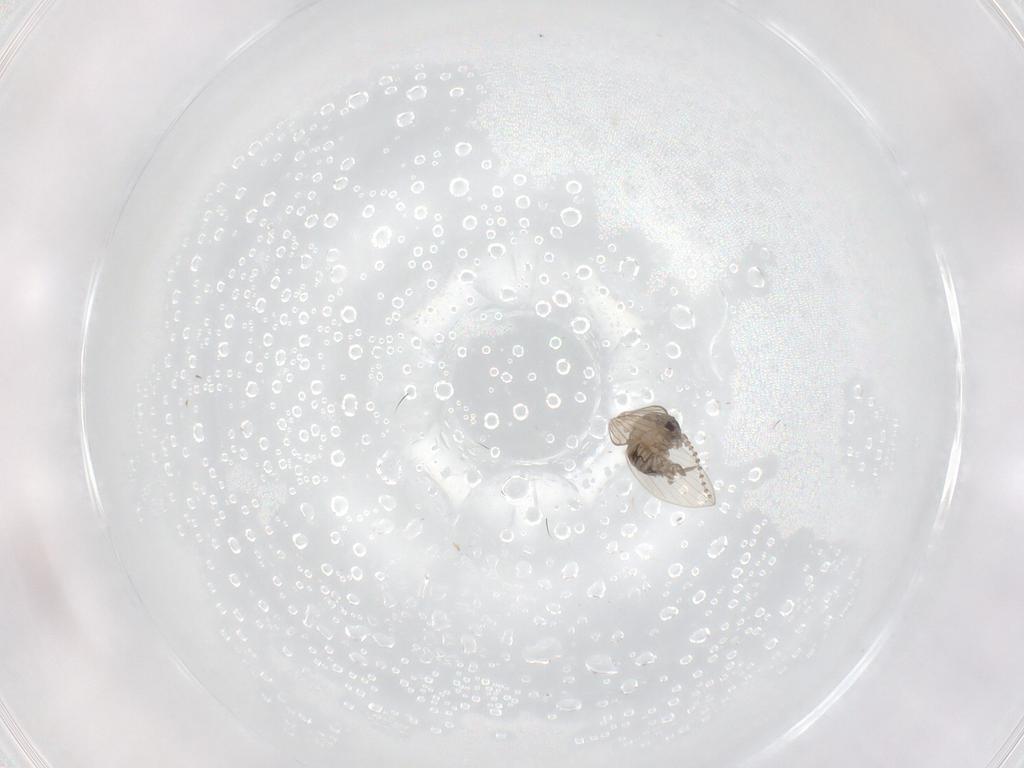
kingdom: Animalia
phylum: Arthropoda
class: Insecta
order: Diptera
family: Psychodidae
